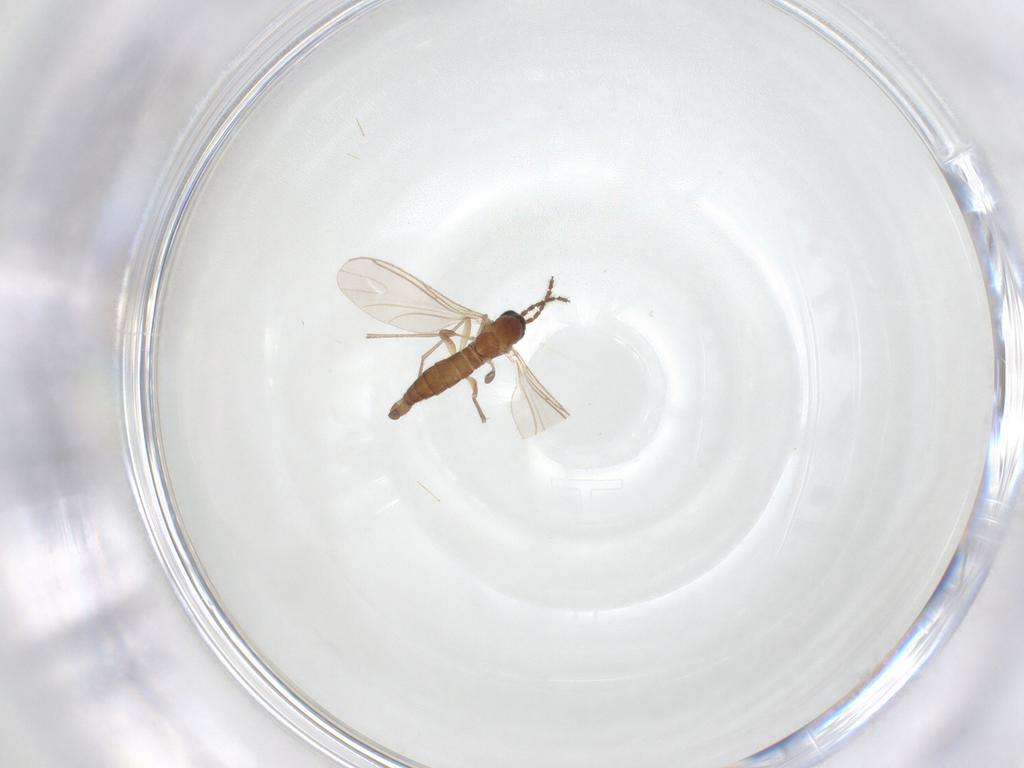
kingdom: Animalia
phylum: Arthropoda
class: Insecta
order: Diptera
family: Sciaridae
